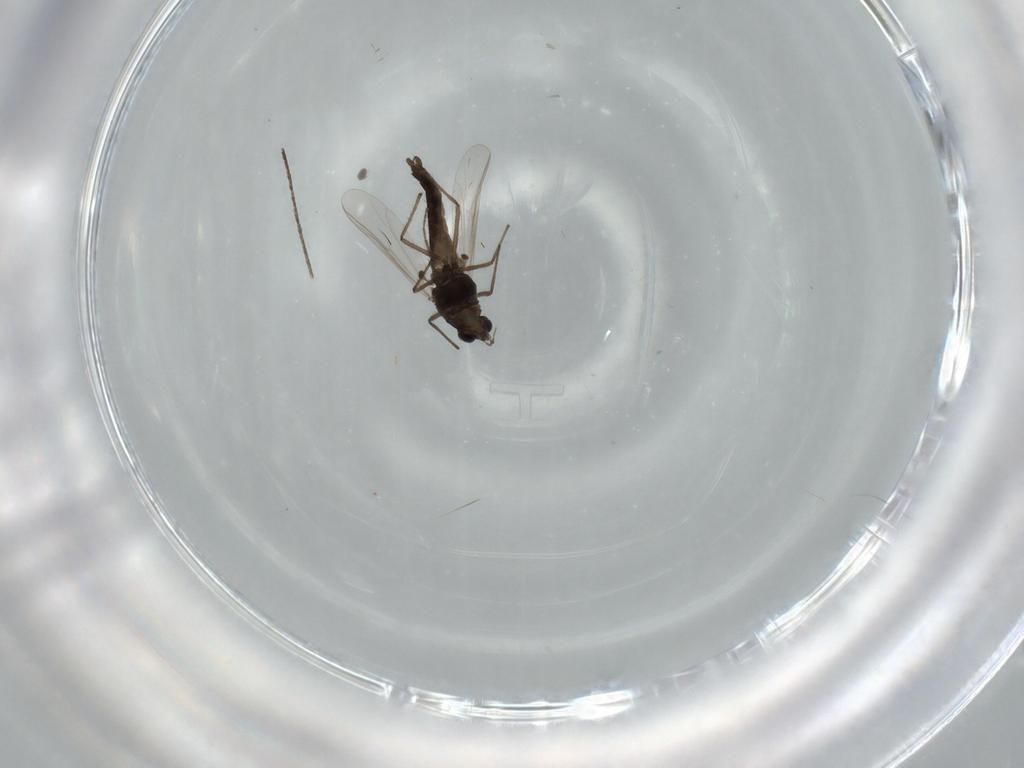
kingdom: Animalia
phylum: Arthropoda
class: Insecta
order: Diptera
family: Chironomidae
